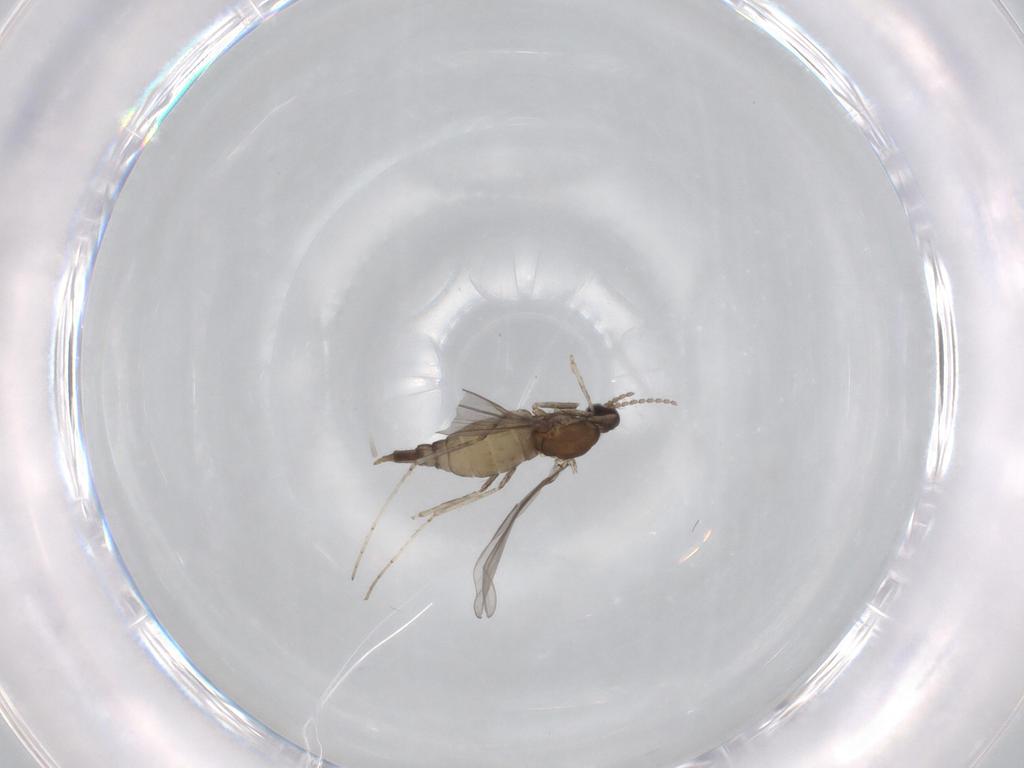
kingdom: Animalia
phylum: Arthropoda
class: Insecta
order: Diptera
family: Cecidomyiidae
